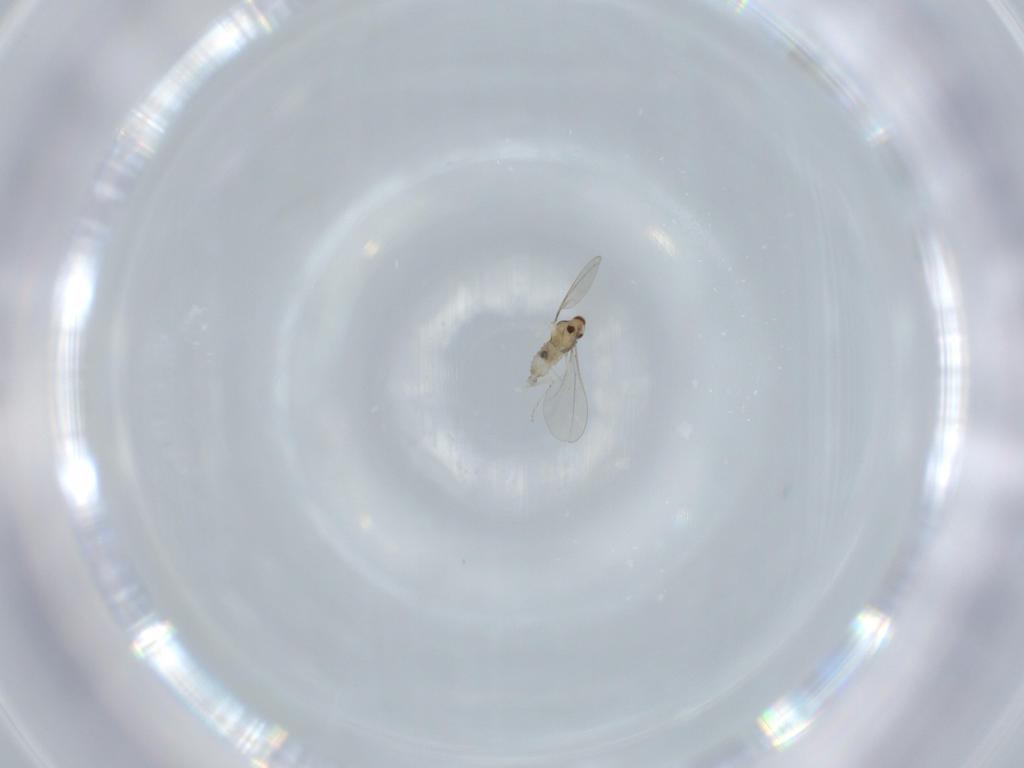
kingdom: Animalia
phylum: Arthropoda
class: Insecta
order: Diptera
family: Cecidomyiidae
